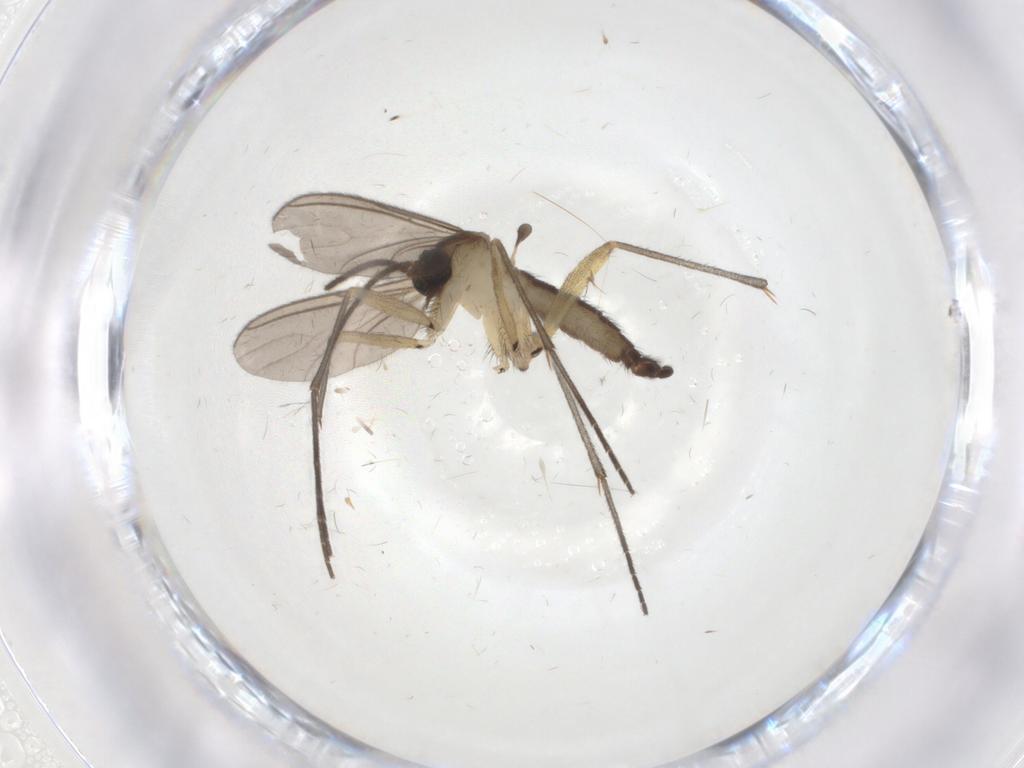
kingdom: Animalia
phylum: Arthropoda
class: Insecta
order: Diptera
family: Sciaridae
